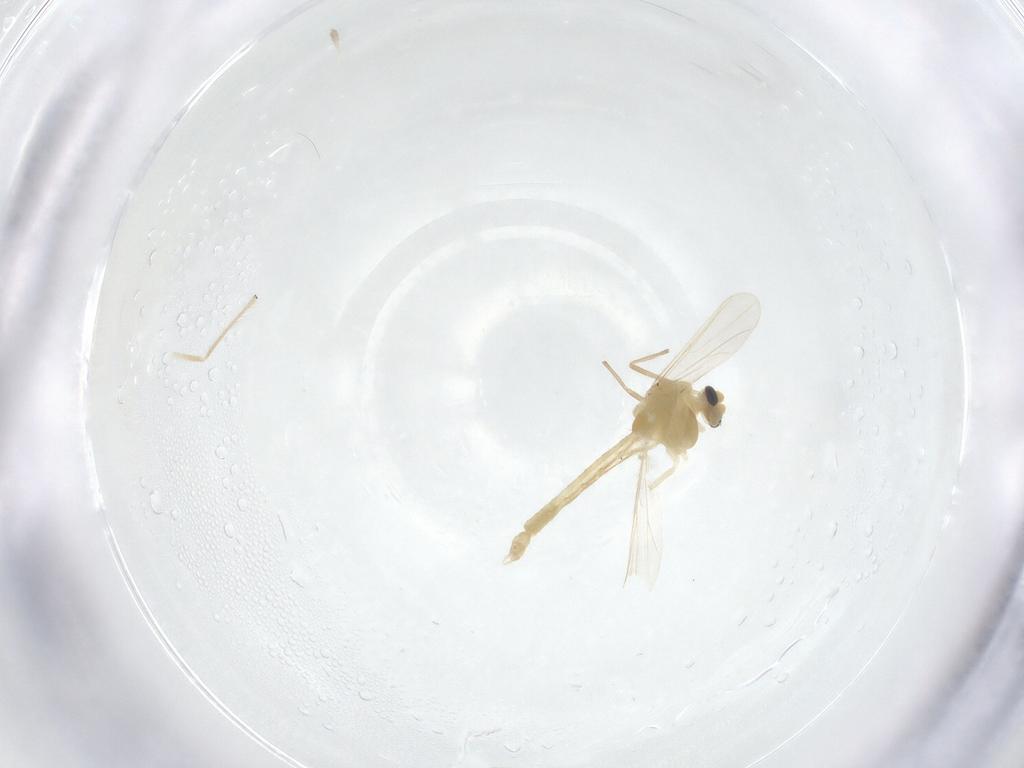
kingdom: Animalia
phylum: Arthropoda
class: Insecta
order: Diptera
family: Chironomidae
